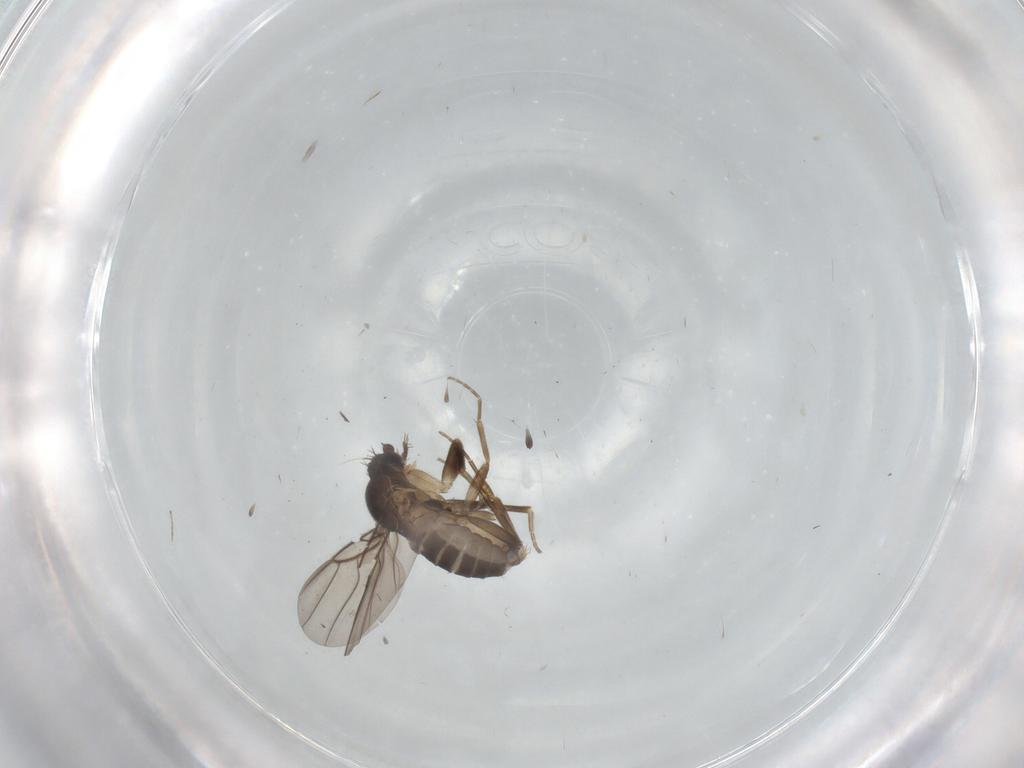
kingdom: Animalia
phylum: Arthropoda
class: Insecta
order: Diptera
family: Cecidomyiidae
